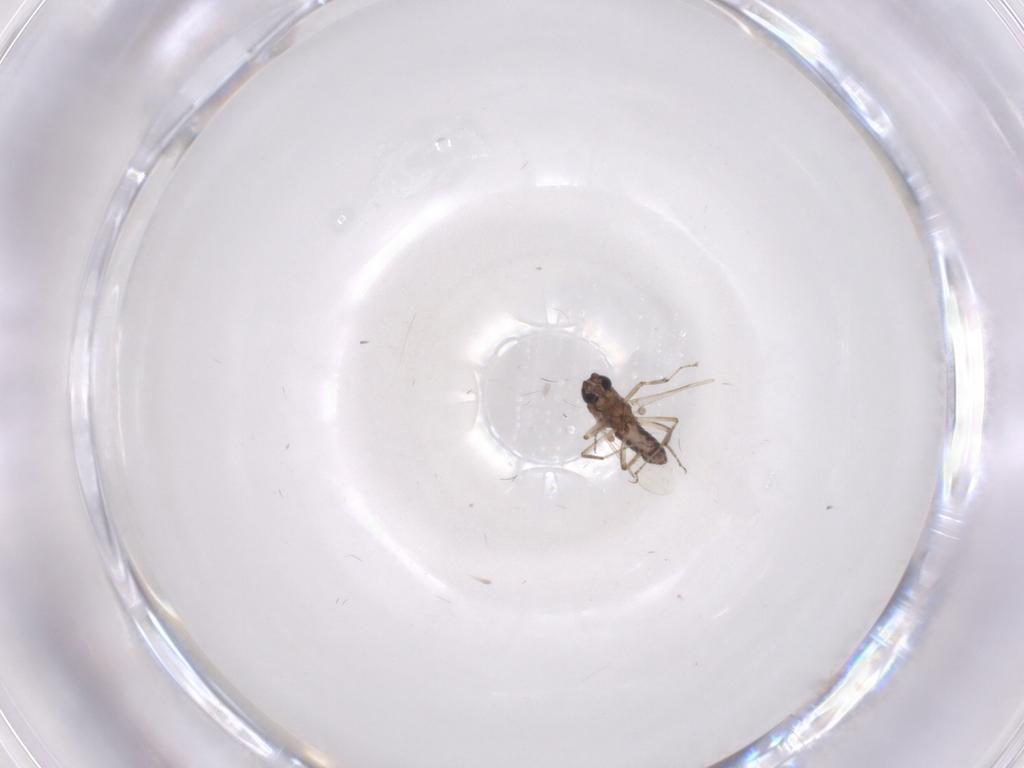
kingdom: Animalia
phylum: Arthropoda
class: Insecta
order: Diptera
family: Ceratopogonidae
